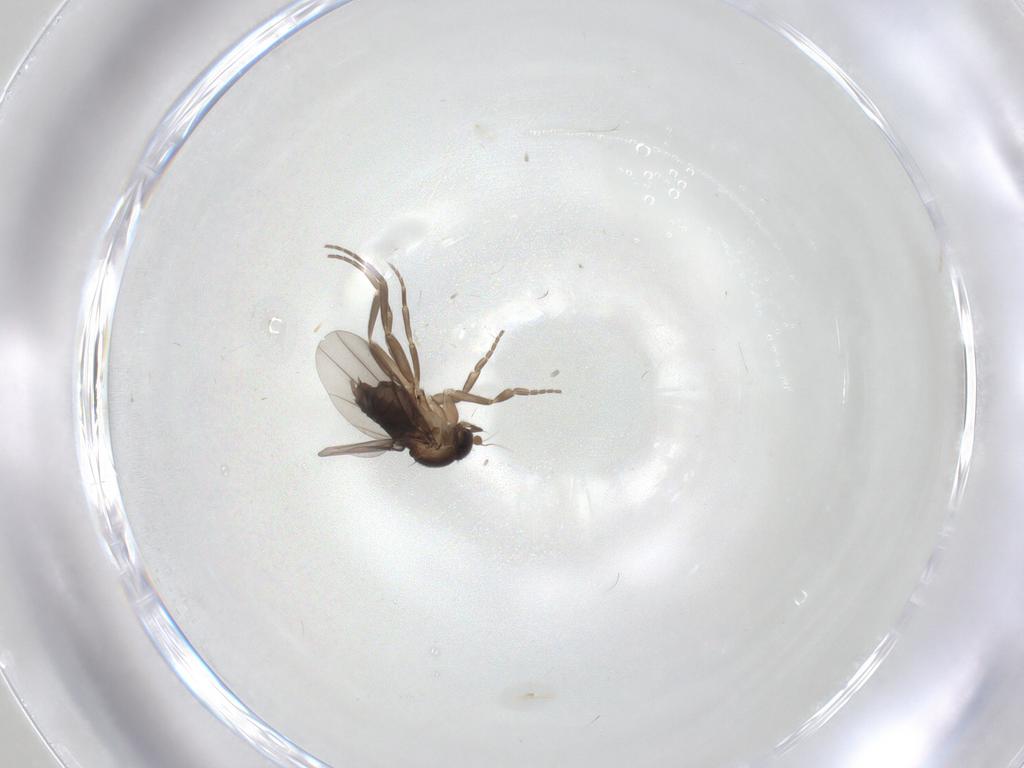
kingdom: Animalia
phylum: Arthropoda
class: Insecta
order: Diptera
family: Phoridae
